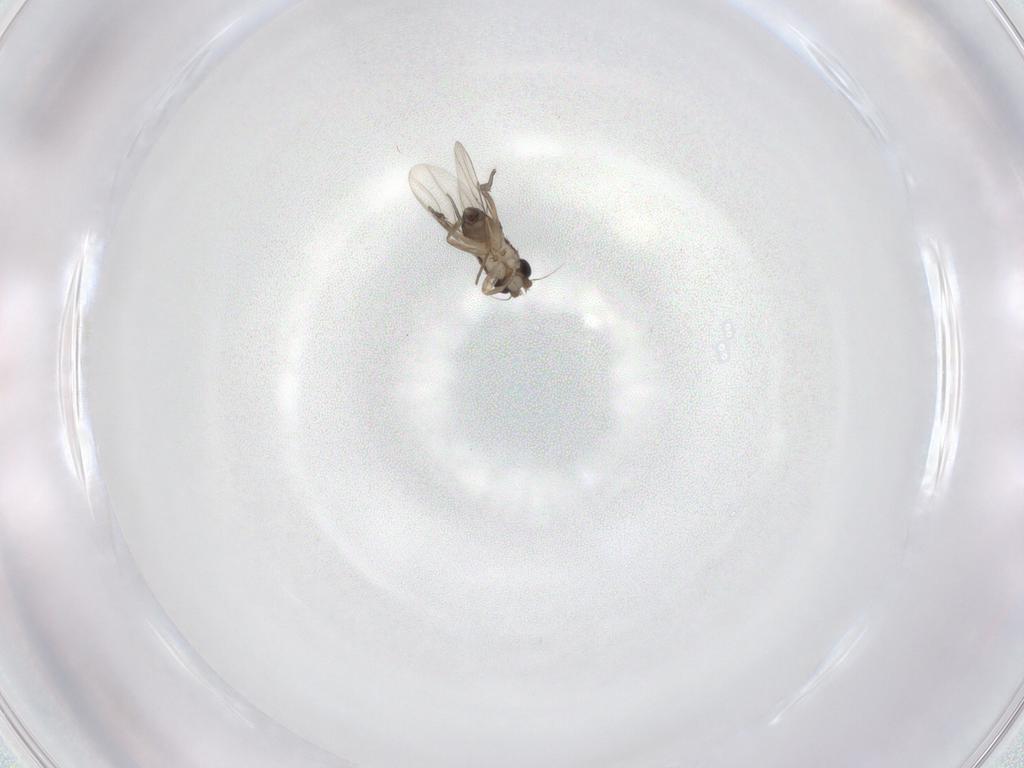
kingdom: Animalia
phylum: Arthropoda
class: Insecta
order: Diptera
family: Phoridae
